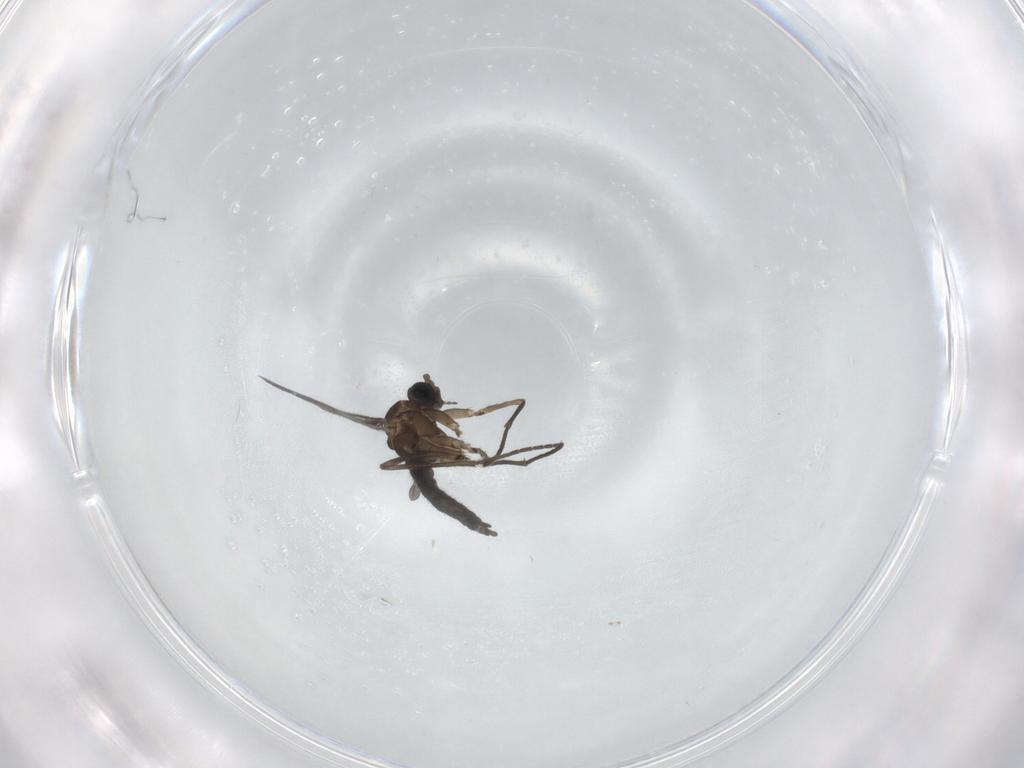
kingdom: Animalia
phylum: Arthropoda
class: Insecta
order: Diptera
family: Sciaridae
